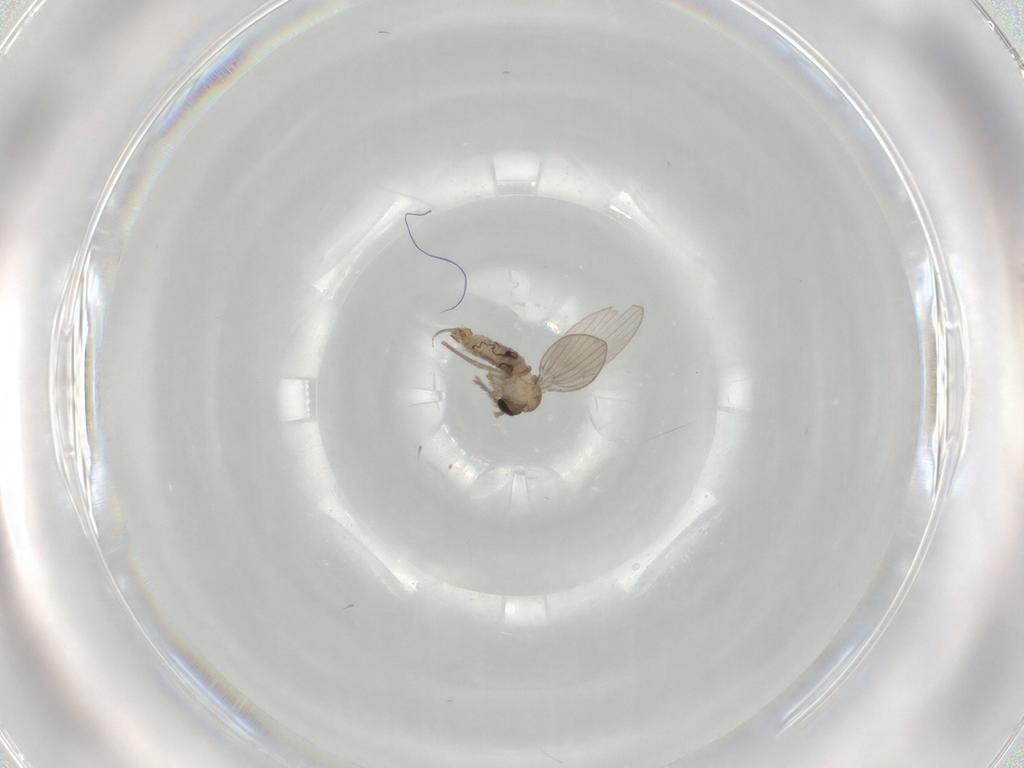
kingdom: Animalia
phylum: Arthropoda
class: Insecta
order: Diptera
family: Psychodidae
